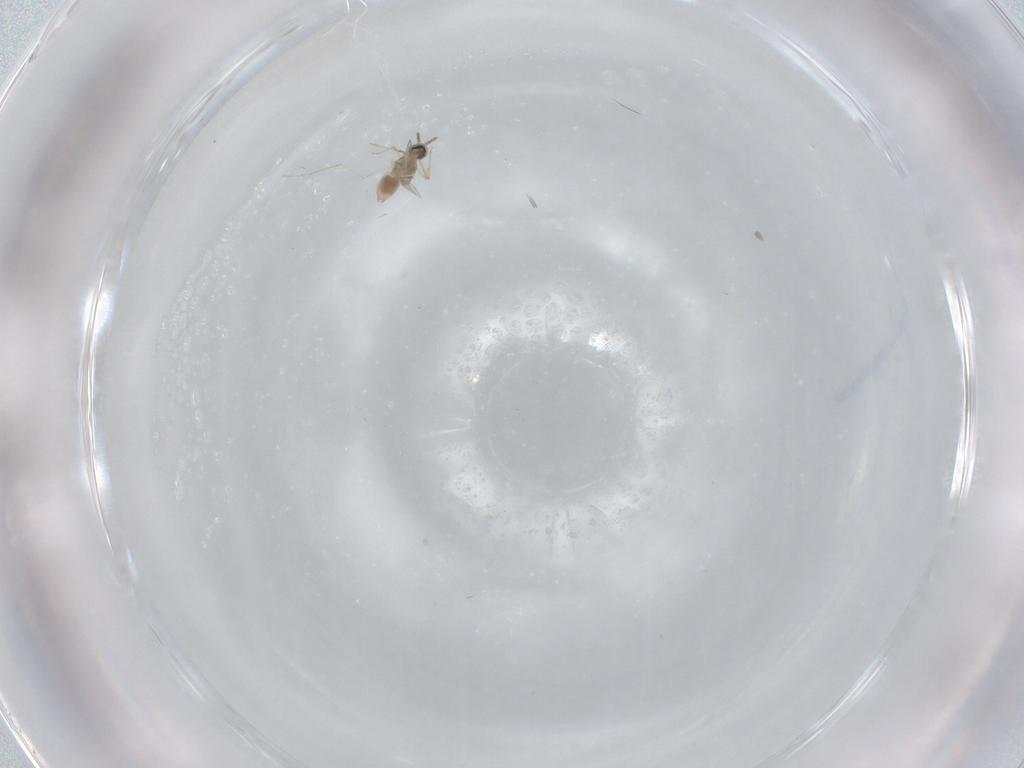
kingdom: Animalia
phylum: Arthropoda
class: Insecta
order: Diptera
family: Cecidomyiidae
